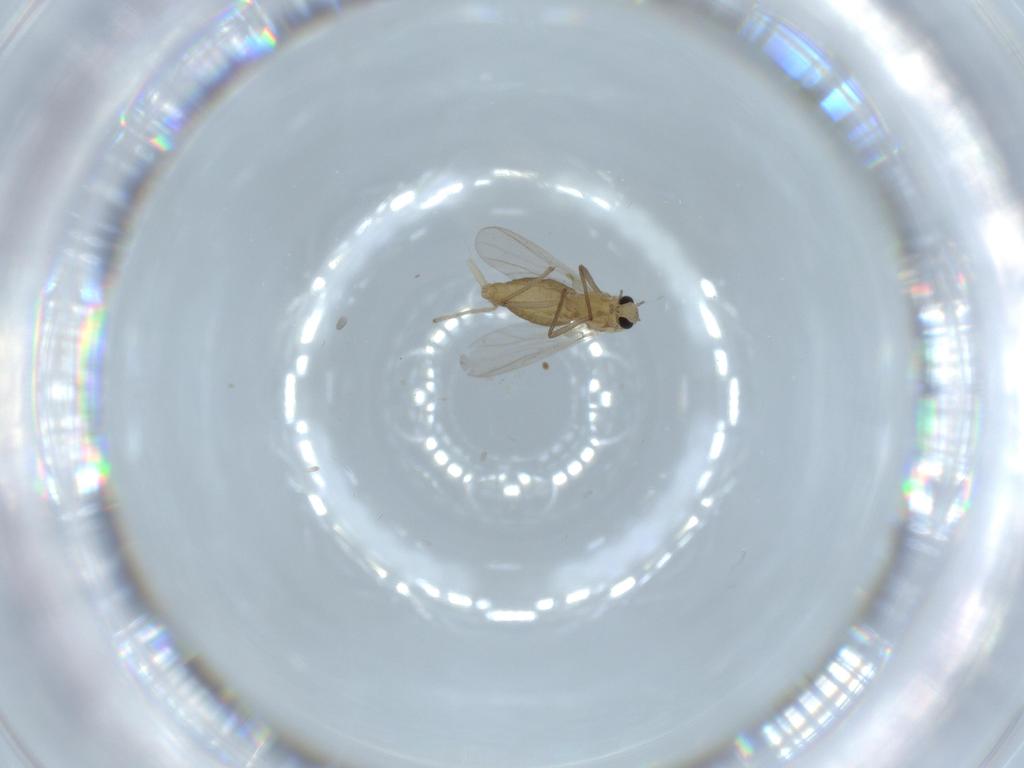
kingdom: Animalia
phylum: Arthropoda
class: Insecta
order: Diptera
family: Chironomidae
